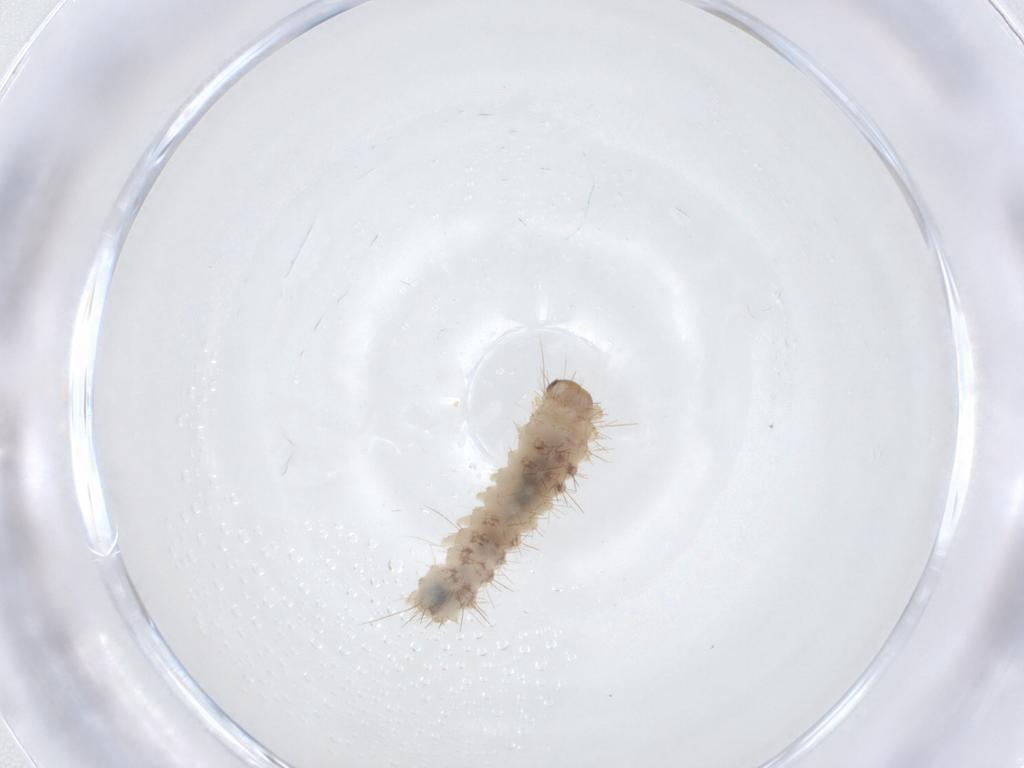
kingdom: Animalia
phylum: Arthropoda
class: Insecta
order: Lepidoptera
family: Erebidae
